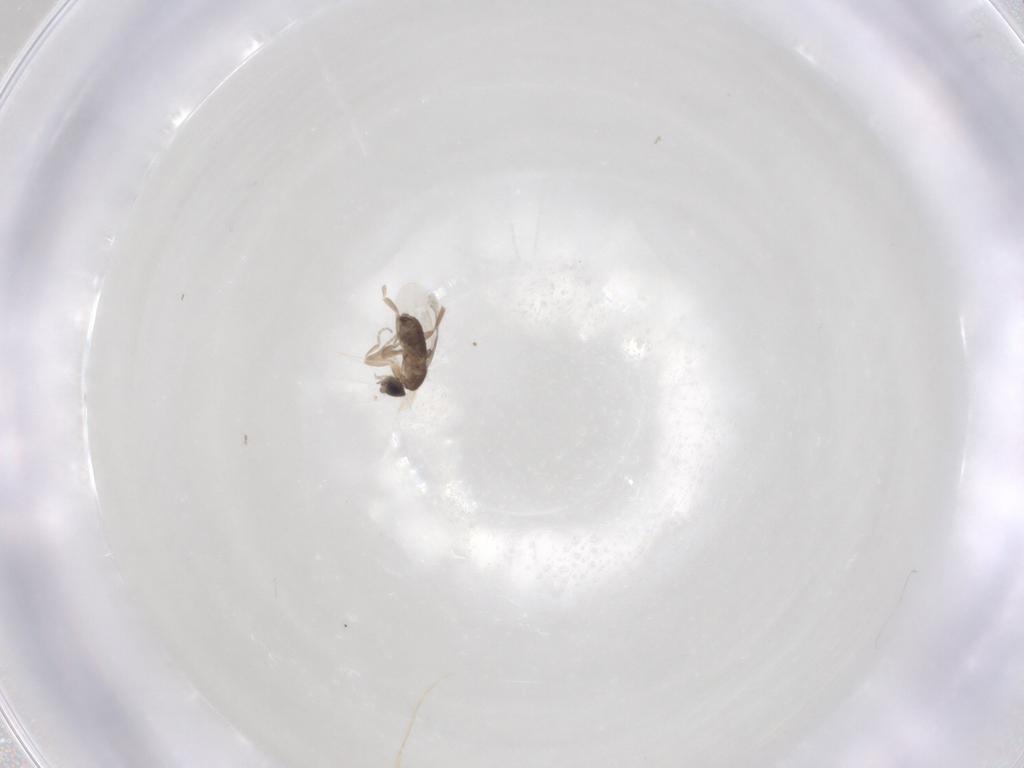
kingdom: Animalia
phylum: Arthropoda
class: Insecta
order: Diptera
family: Phoridae
